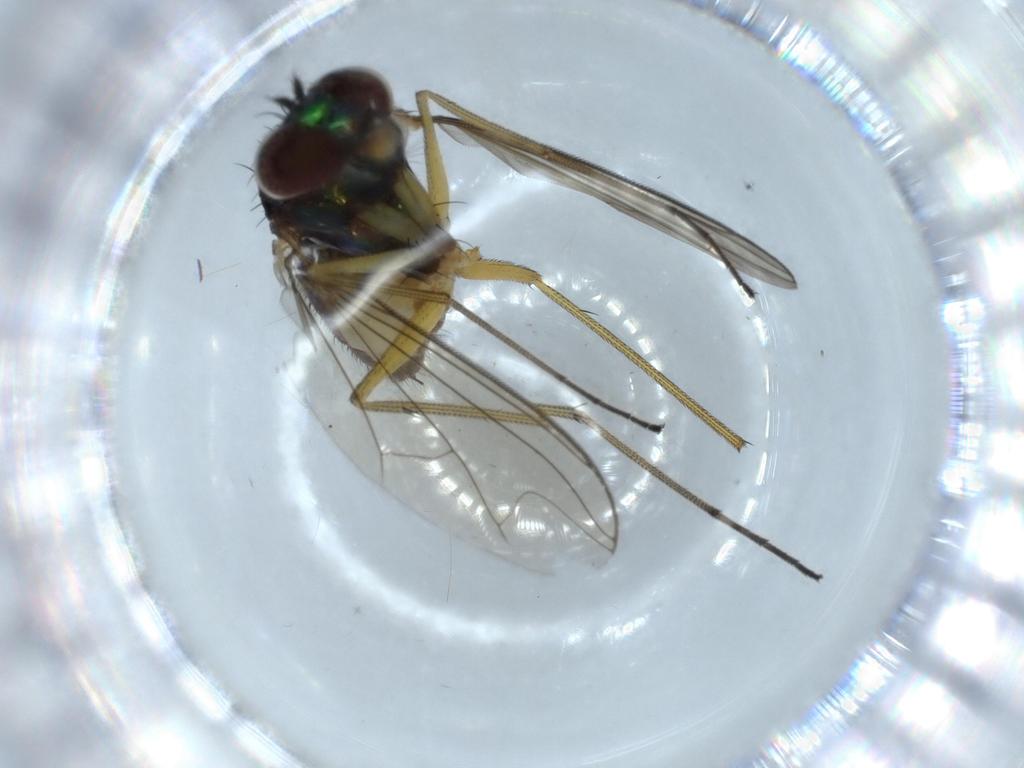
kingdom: Animalia
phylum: Arthropoda
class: Insecta
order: Diptera
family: Dolichopodidae
